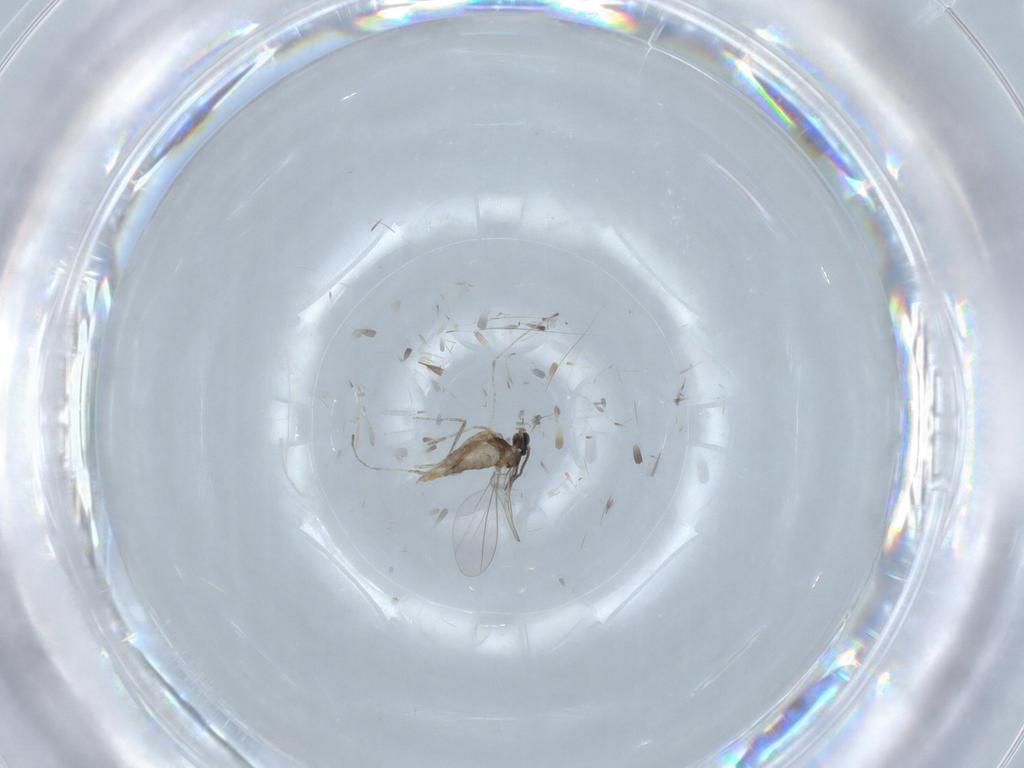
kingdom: Animalia
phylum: Arthropoda
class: Insecta
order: Diptera
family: Cecidomyiidae
